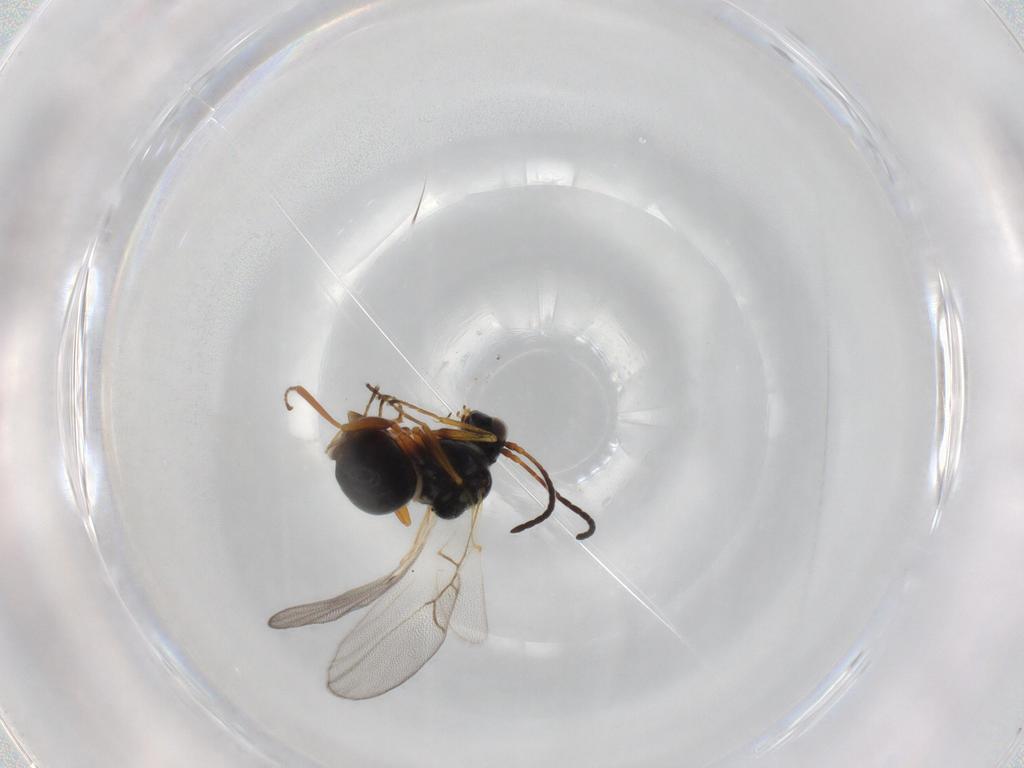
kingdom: Animalia
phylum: Arthropoda
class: Insecta
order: Hymenoptera
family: Figitidae
